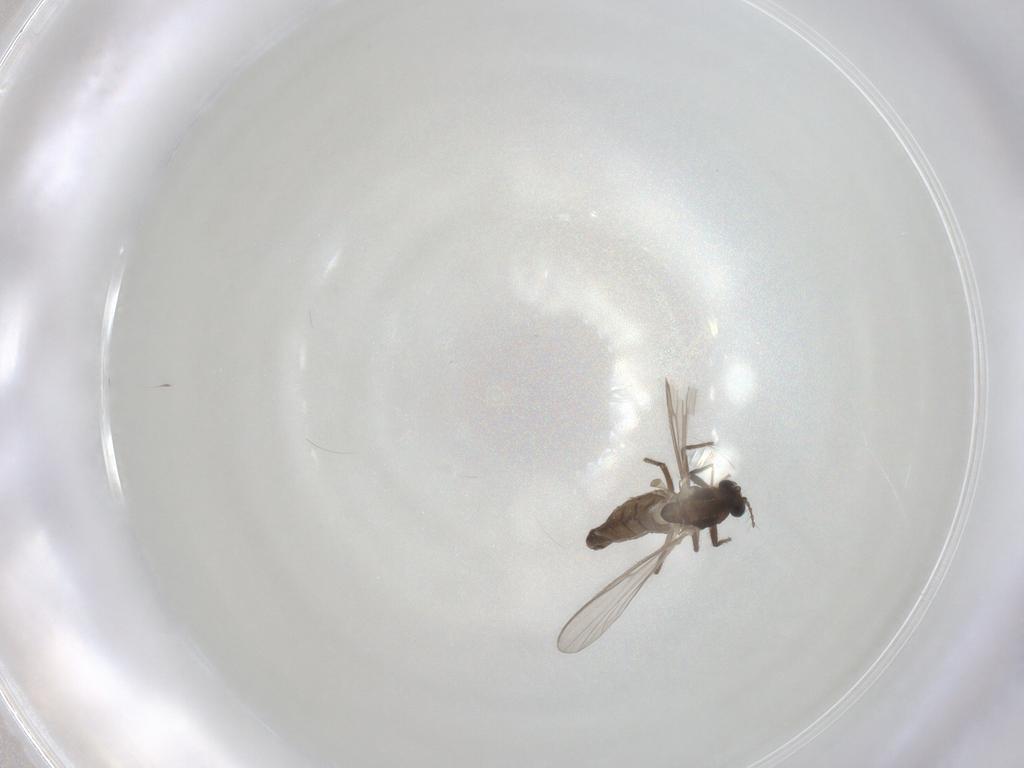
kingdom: Animalia
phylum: Arthropoda
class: Insecta
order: Diptera
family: Chironomidae
